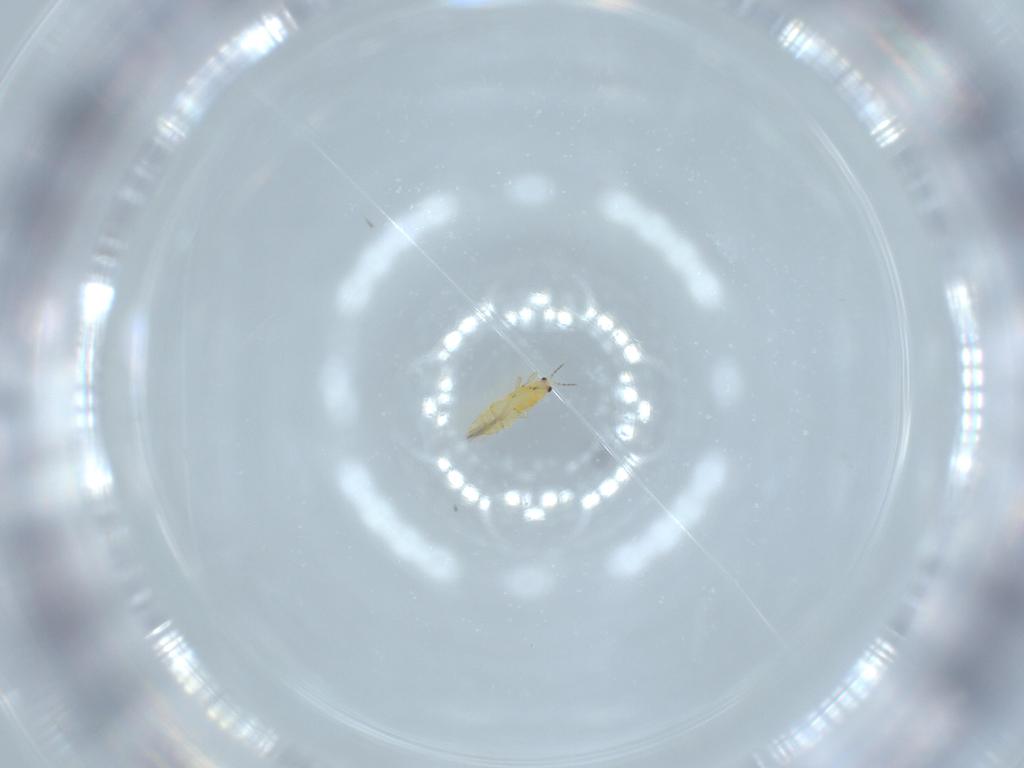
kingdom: Animalia
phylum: Arthropoda
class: Insecta
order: Thysanoptera
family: Thripidae
